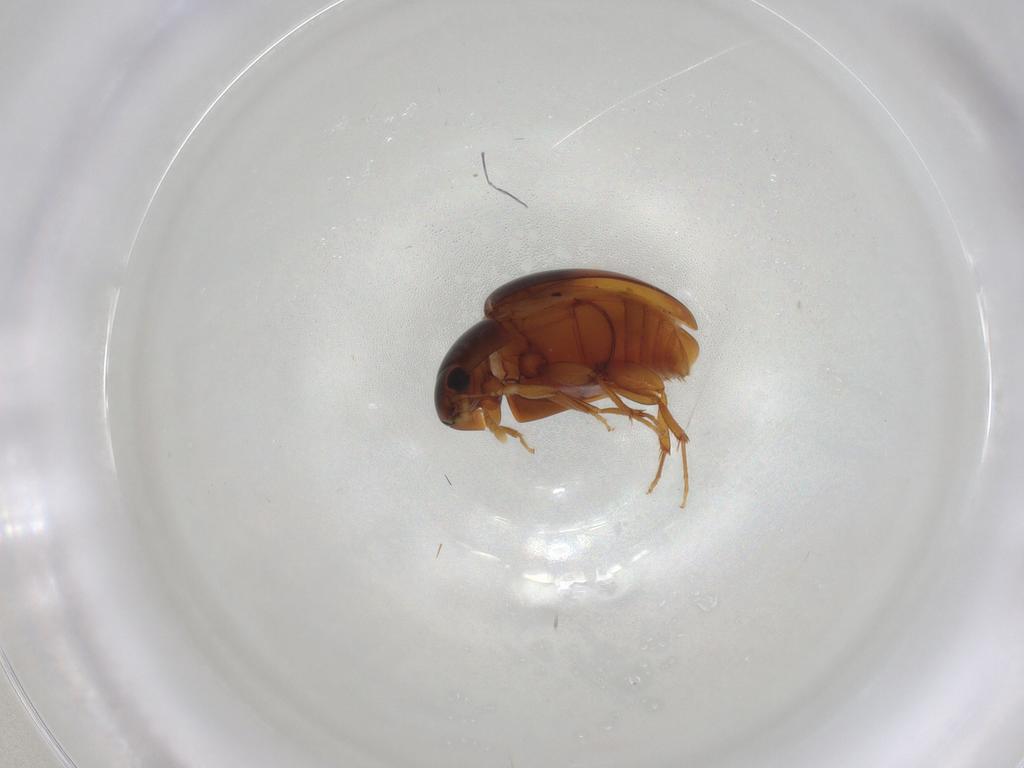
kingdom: Animalia
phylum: Arthropoda
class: Insecta
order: Coleoptera
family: Phalacridae
